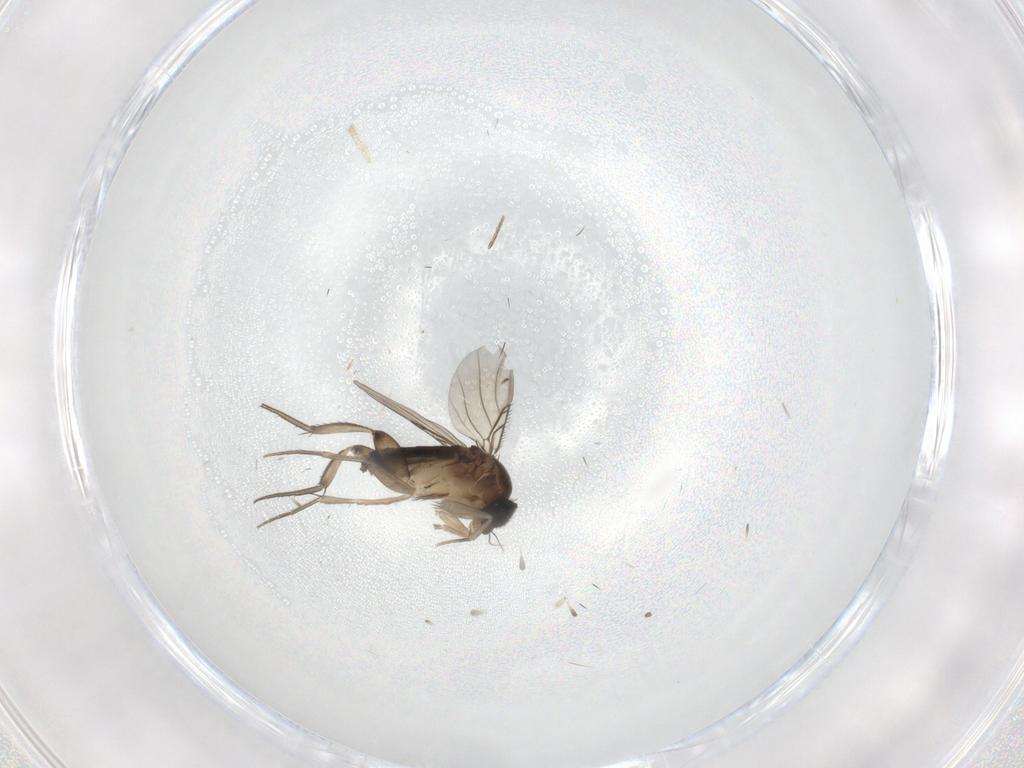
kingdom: Animalia
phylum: Arthropoda
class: Insecta
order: Diptera
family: Phoridae
